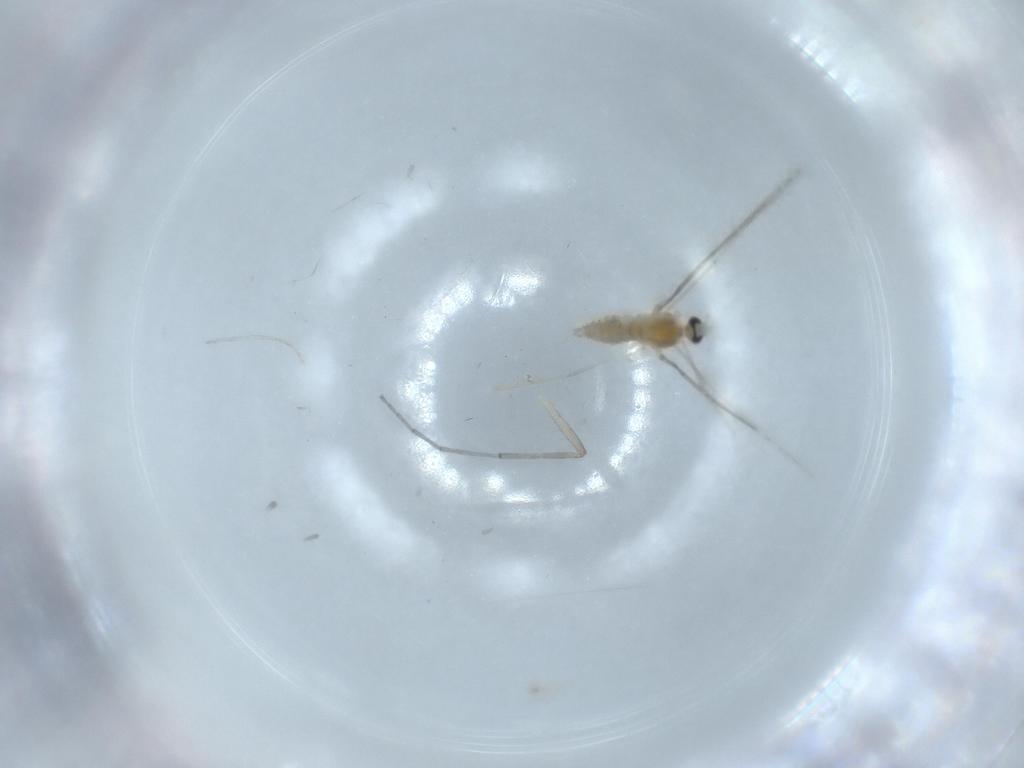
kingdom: Animalia
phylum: Arthropoda
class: Insecta
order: Diptera
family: Cecidomyiidae
